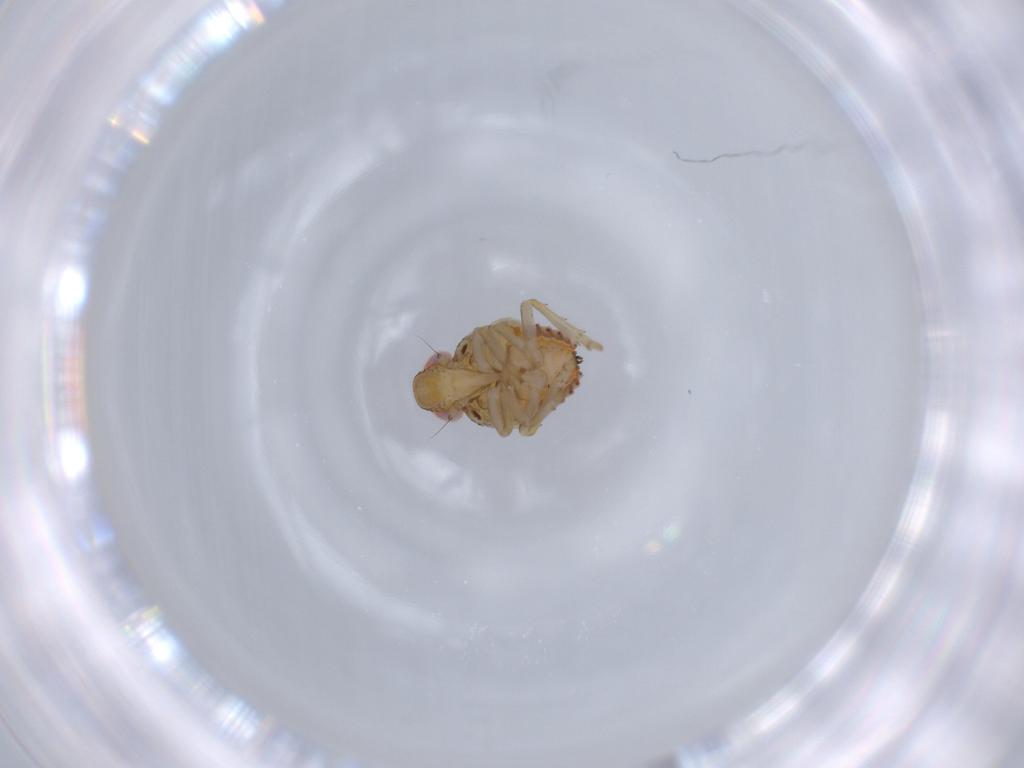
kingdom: Animalia
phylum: Arthropoda
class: Insecta
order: Hemiptera
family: Issidae
